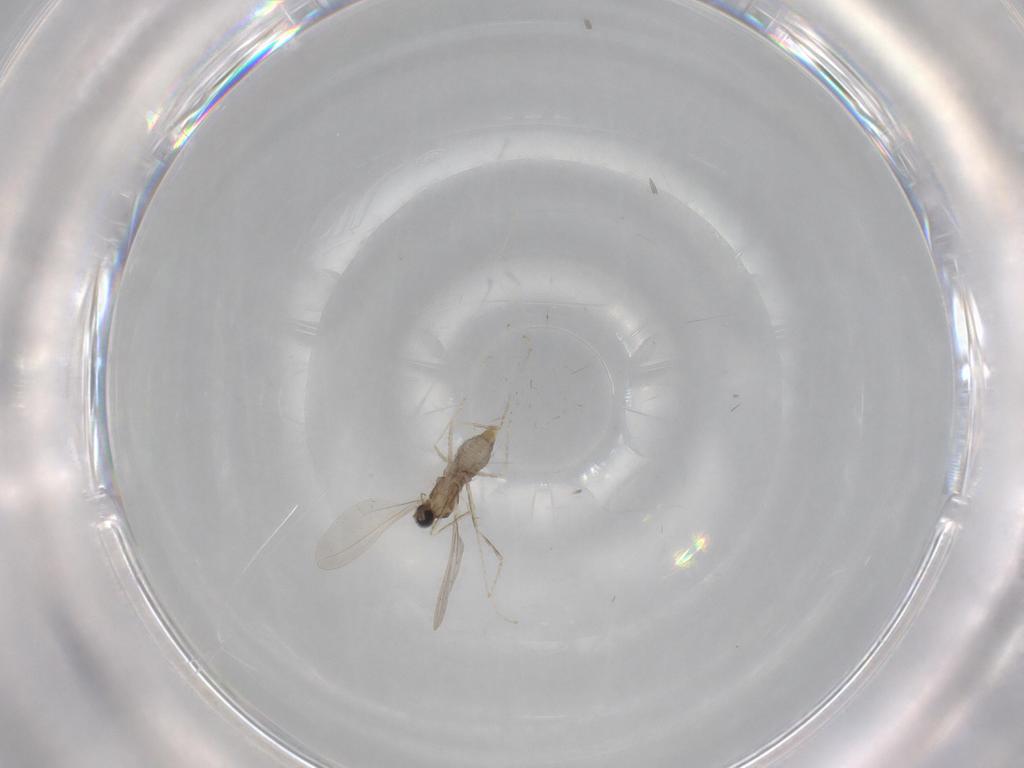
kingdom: Animalia
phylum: Arthropoda
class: Insecta
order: Diptera
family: Cecidomyiidae
